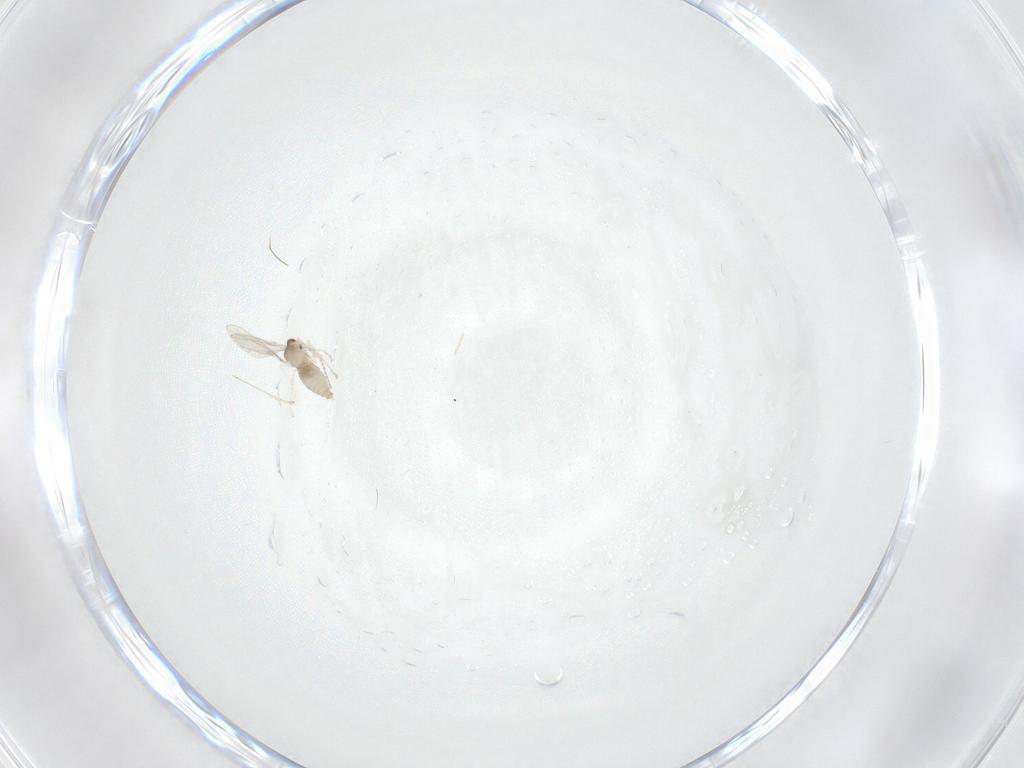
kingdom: Animalia
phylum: Arthropoda
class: Insecta
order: Diptera
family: Cecidomyiidae
